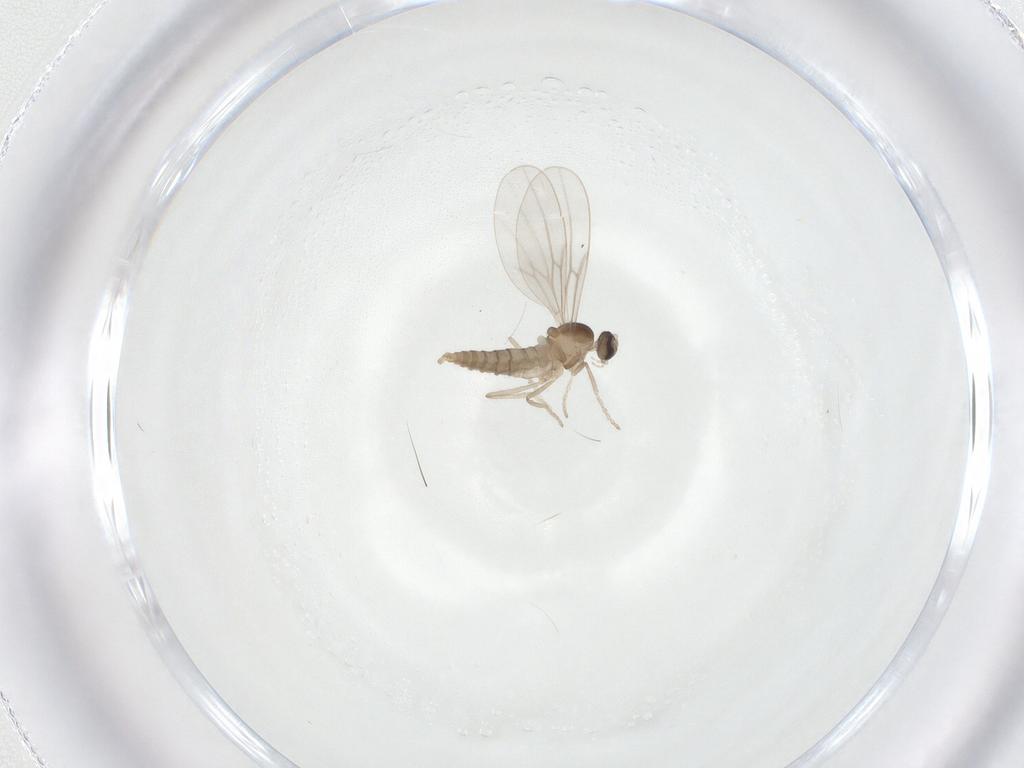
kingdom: Animalia
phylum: Arthropoda
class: Insecta
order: Diptera
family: Cecidomyiidae
